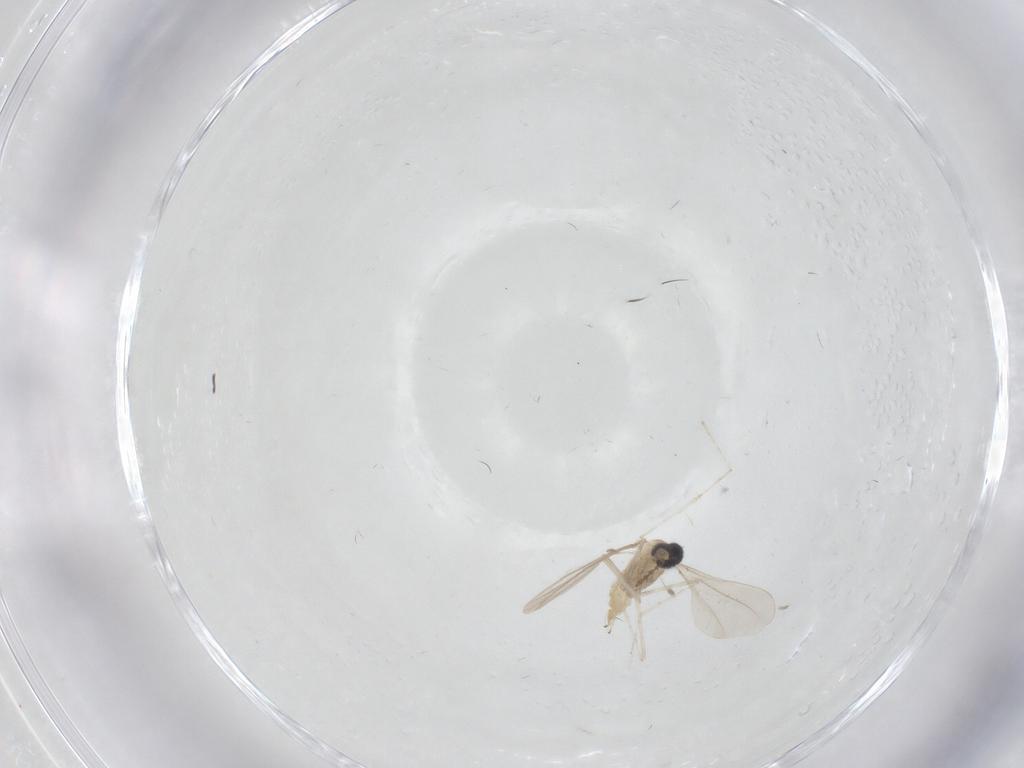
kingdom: Animalia
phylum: Arthropoda
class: Insecta
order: Diptera
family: Cecidomyiidae
